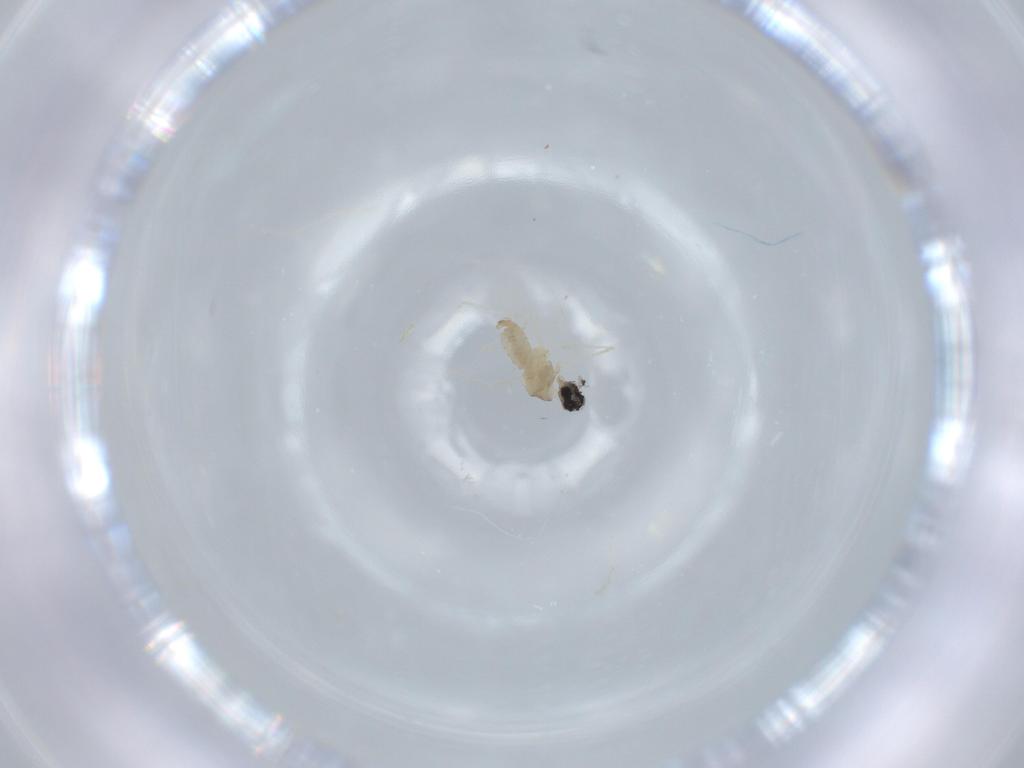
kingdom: Animalia
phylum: Arthropoda
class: Insecta
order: Diptera
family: Cecidomyiidae
